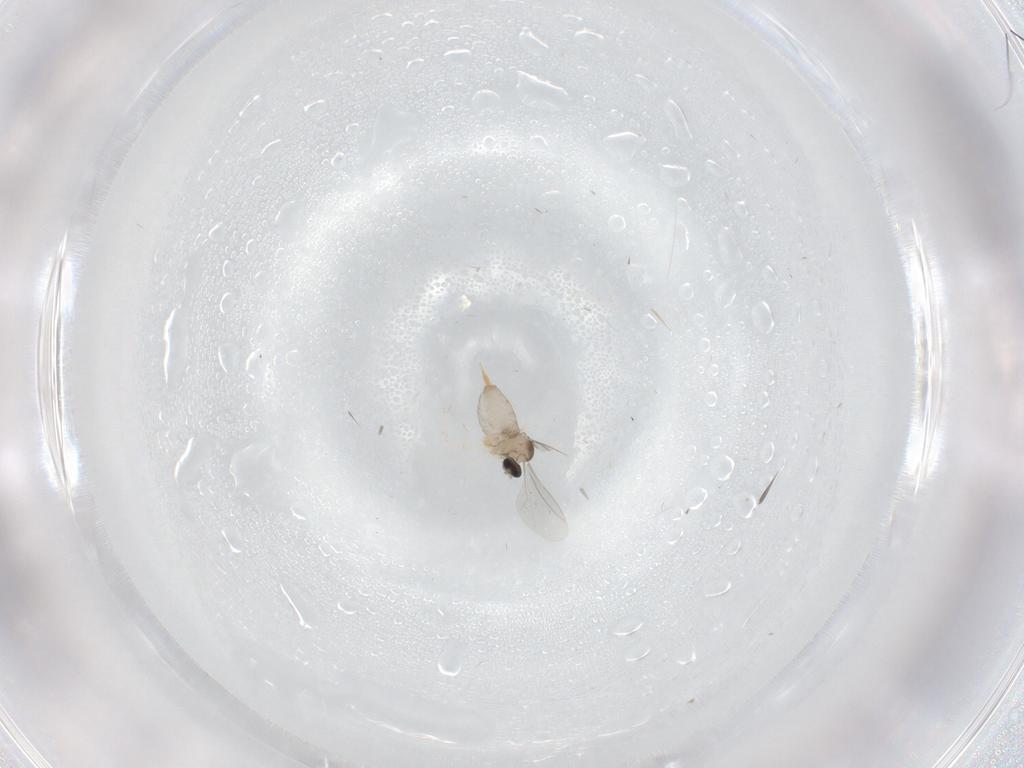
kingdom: Animalia
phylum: Arthropoda
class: Insecta
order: Diptera
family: Cecidomyiidae
